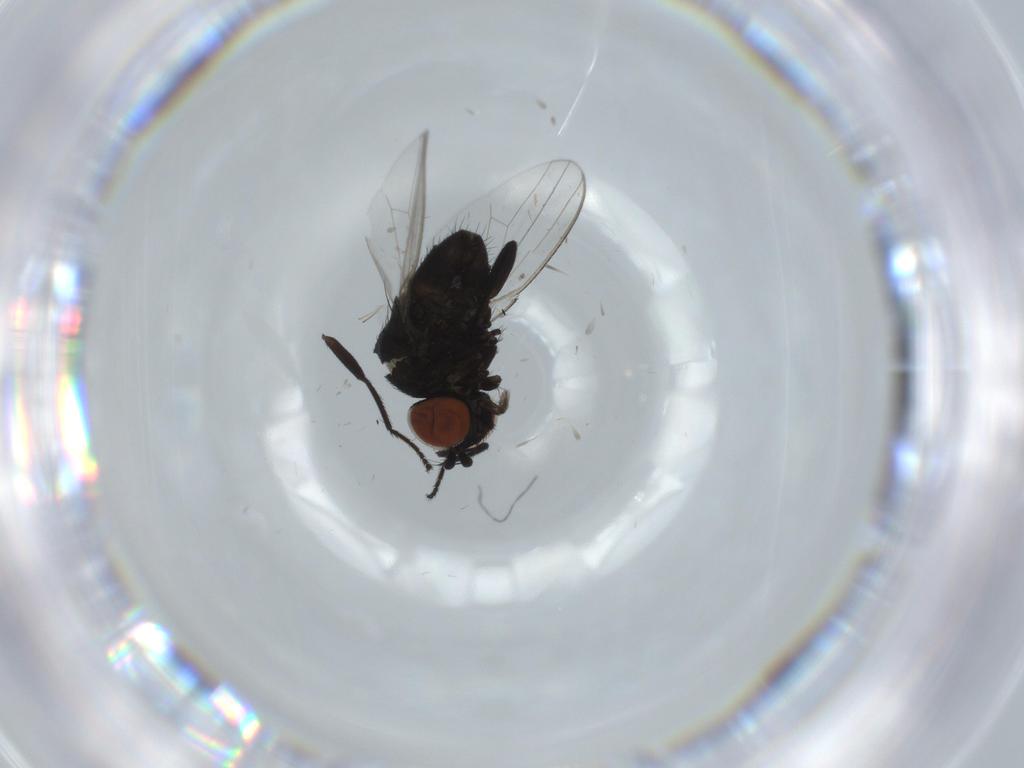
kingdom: Animalia
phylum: Arthropoda
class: Insecta
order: Diptera
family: Milichiidae
